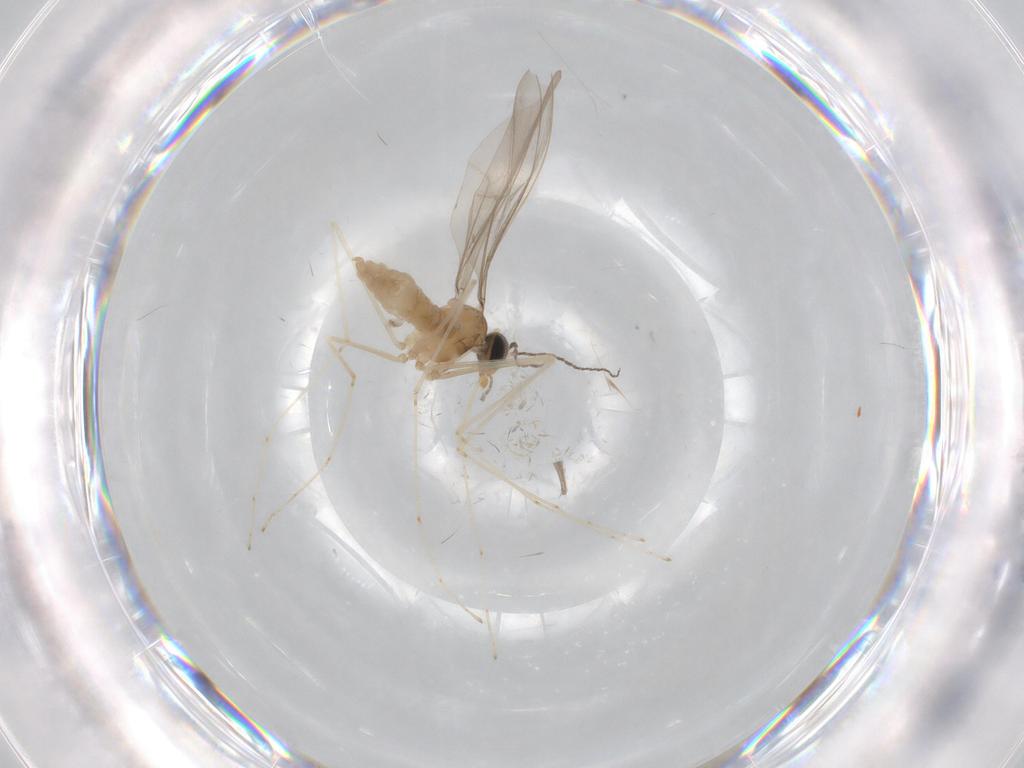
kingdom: Animalia
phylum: Arthropoda
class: Insecta
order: Diptera
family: Cecidomyiidae
